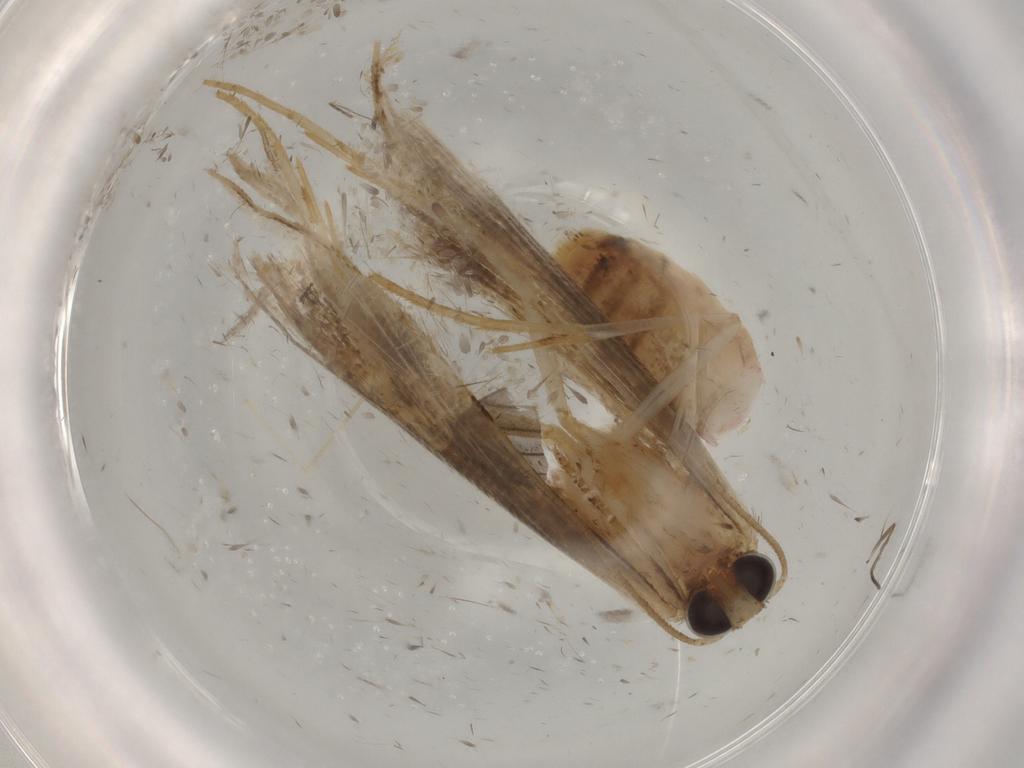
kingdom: Animalia
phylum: Arthropoda
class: Insecta
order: Lepidoptera
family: Noctuidae
